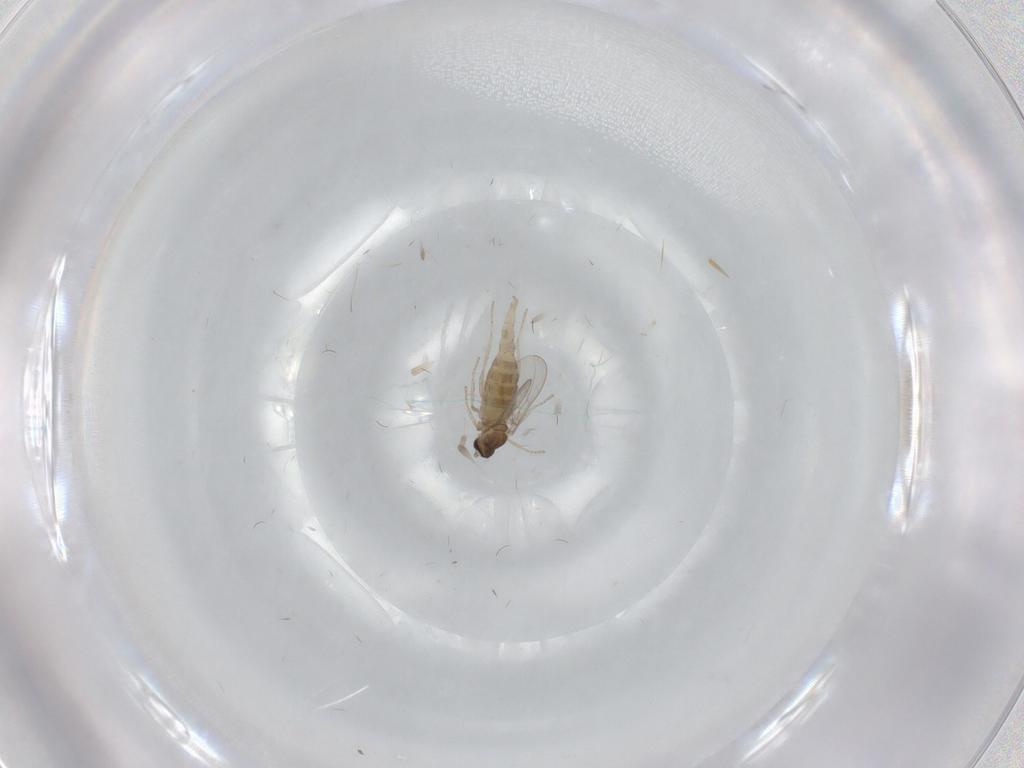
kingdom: Animalia
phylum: Arthropoda
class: Insecta
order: Diptera
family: Cecidomyiidae
